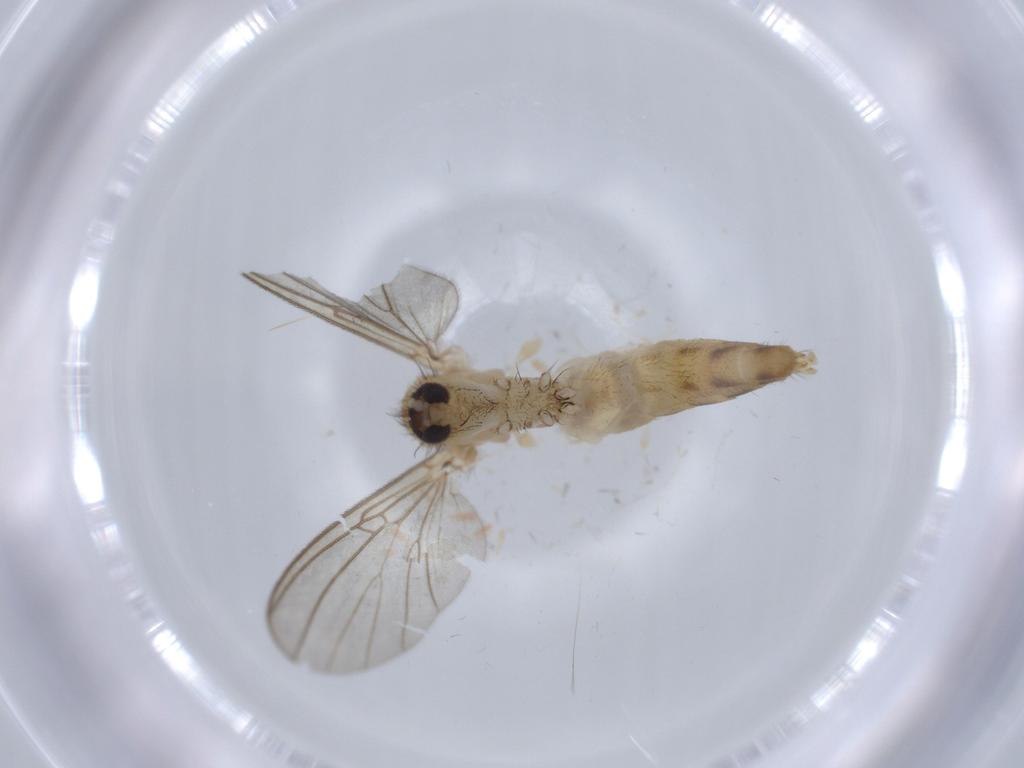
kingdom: Animalia
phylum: Arthropoda
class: Insecta
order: Diptera
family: Mycetophilidae
